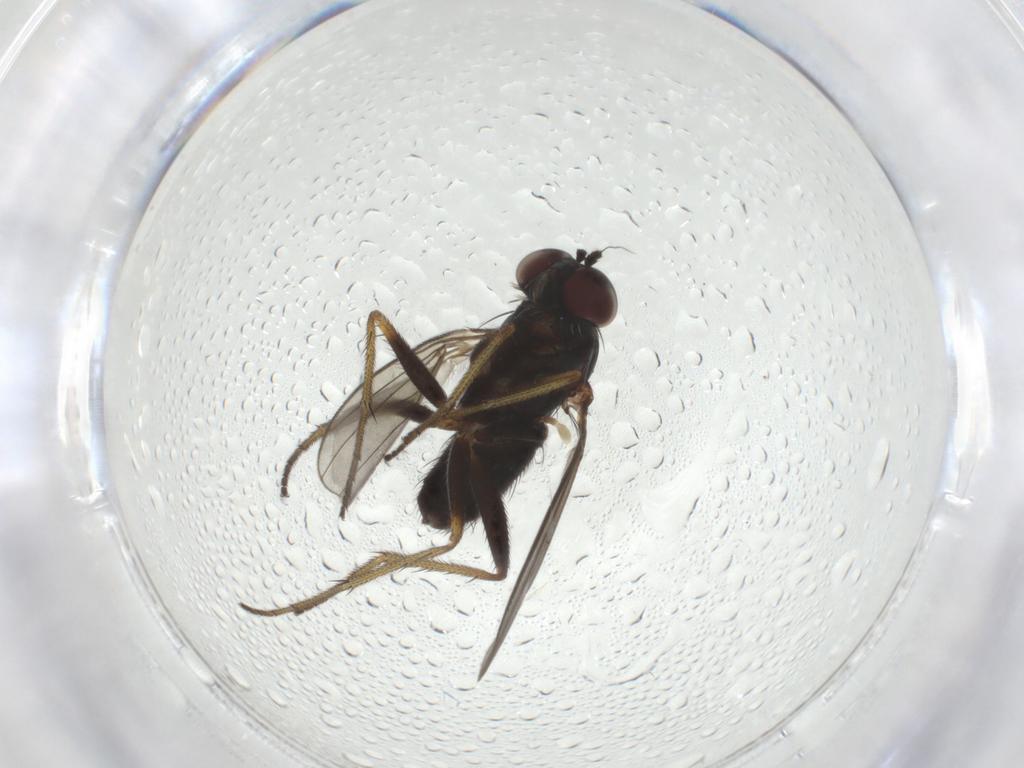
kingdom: Animalia
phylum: Arthropoda
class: Insecta
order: Diptera
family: Dolichopodidae
